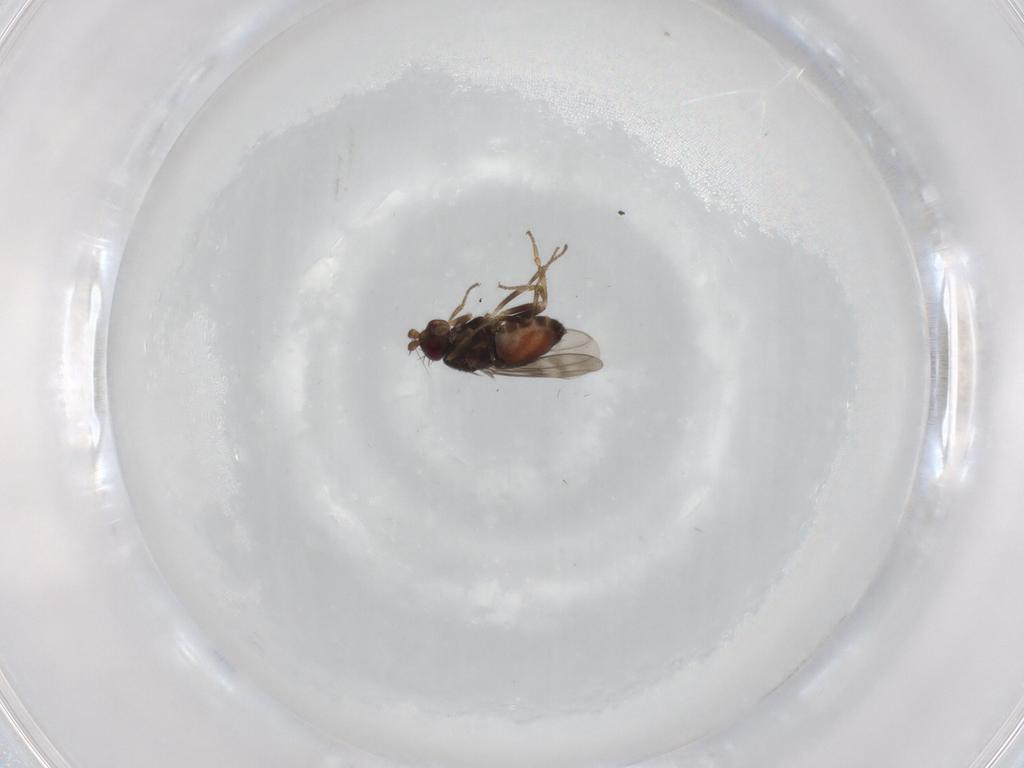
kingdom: Animalia
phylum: Arthropoda
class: Insecta
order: Diptera
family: Sphaeroceridae
